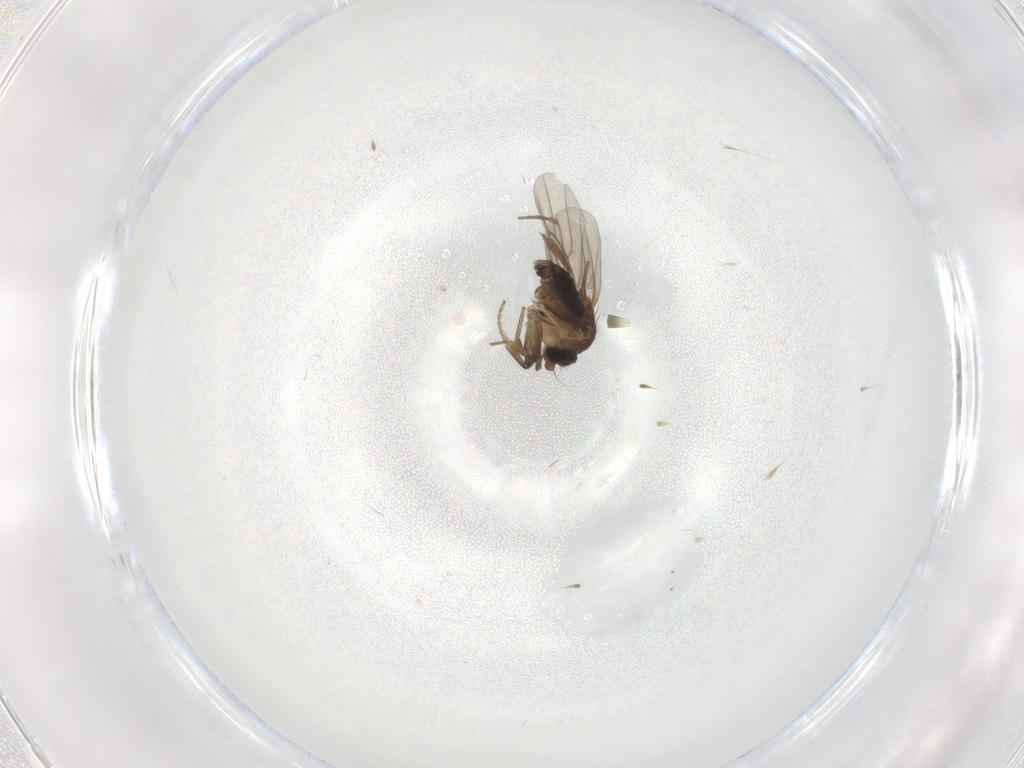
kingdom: Animalia
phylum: Arthropoda
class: Insecta
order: Diptera
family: Phoridae
